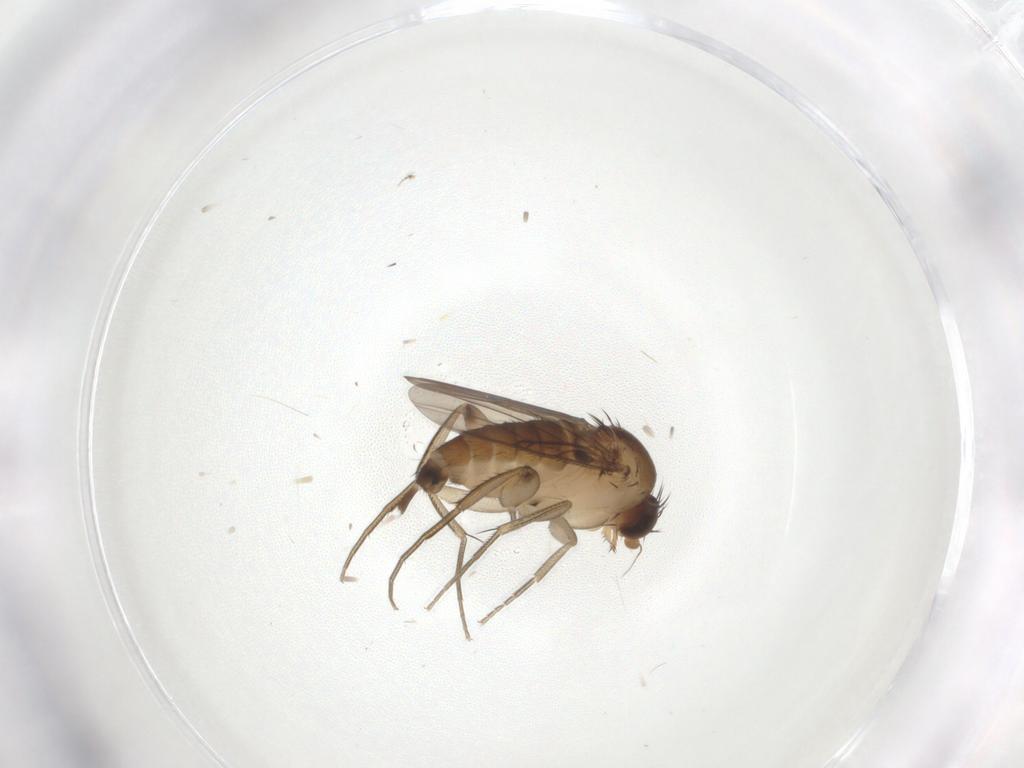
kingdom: Animalia
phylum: Arthropoda
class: Insecta
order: Diptera
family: Phoridae
